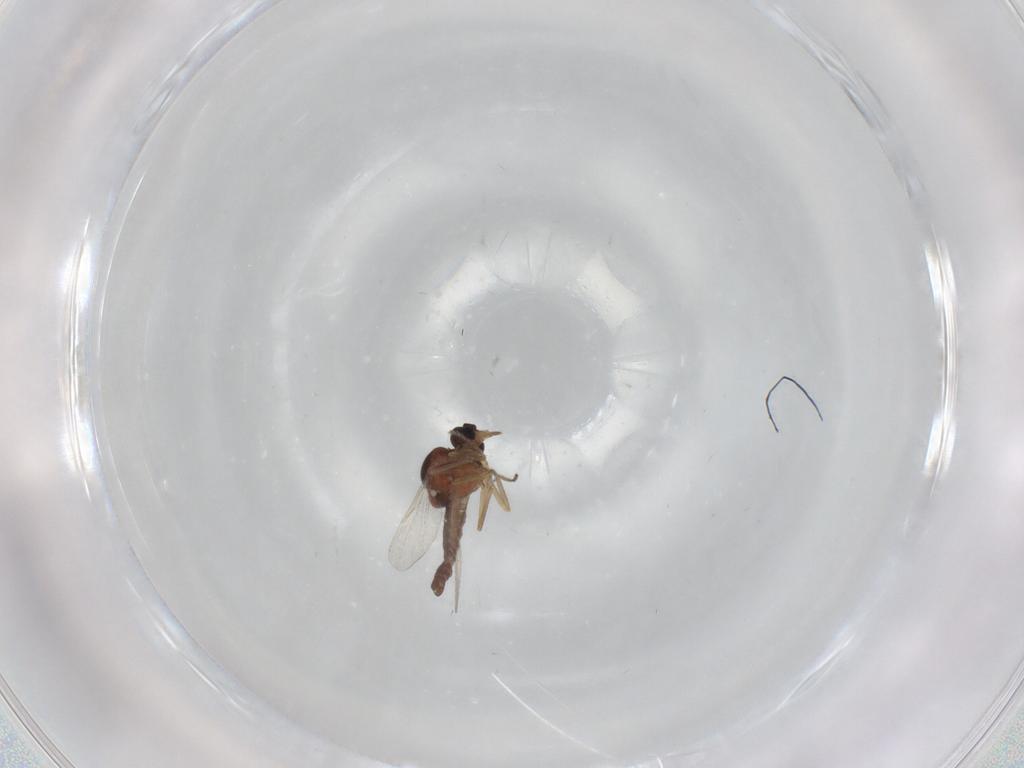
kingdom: Animalia
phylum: Arthropoda
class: Insecta
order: Diptera
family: Ceratopogonidae
